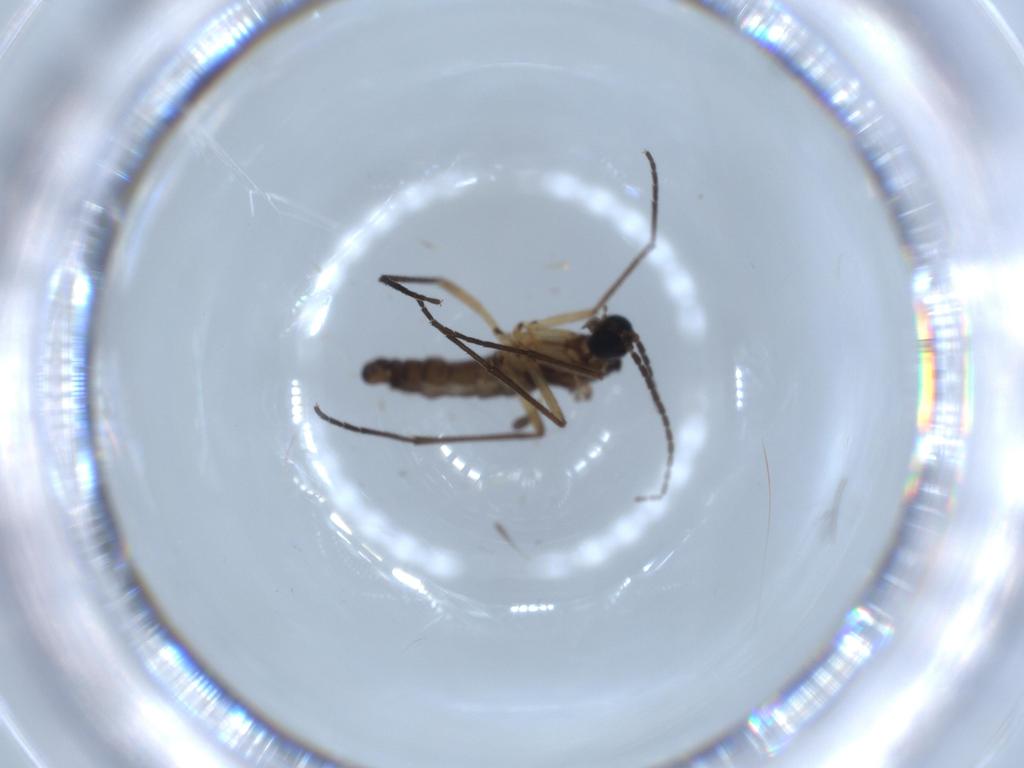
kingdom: Animalia
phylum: Arthropoda
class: Insecta
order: Diptera
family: Sciaridae
